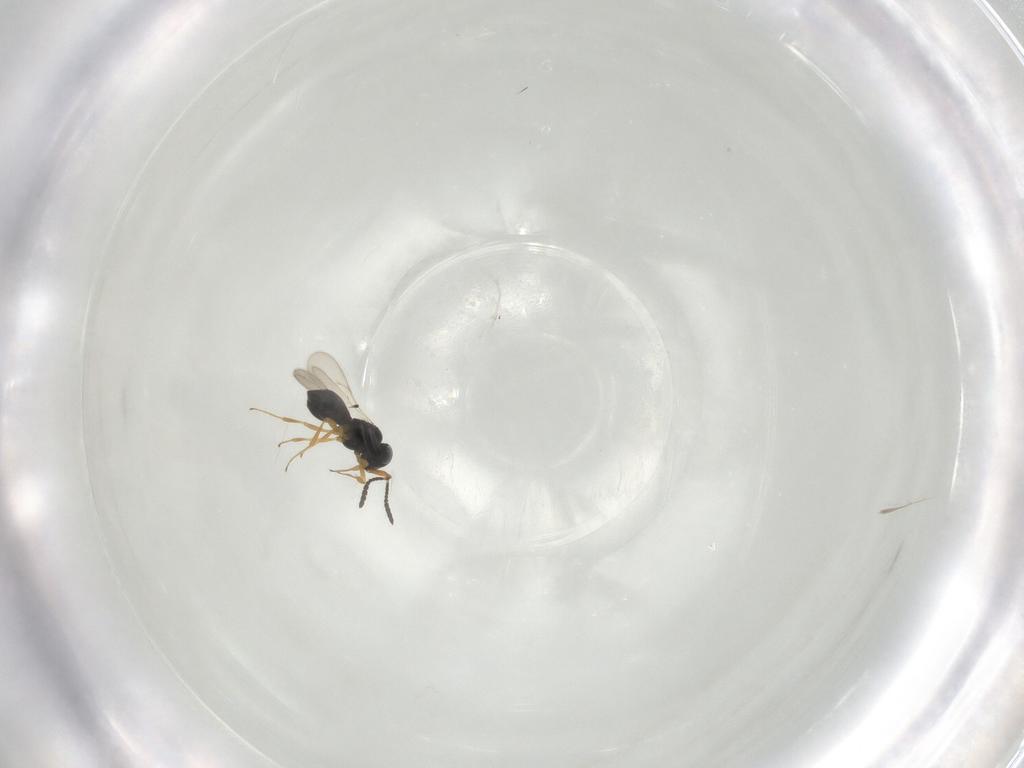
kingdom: Animalia
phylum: Arthropoda
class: Insecta
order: Hymenoptera
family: Scelionidae
